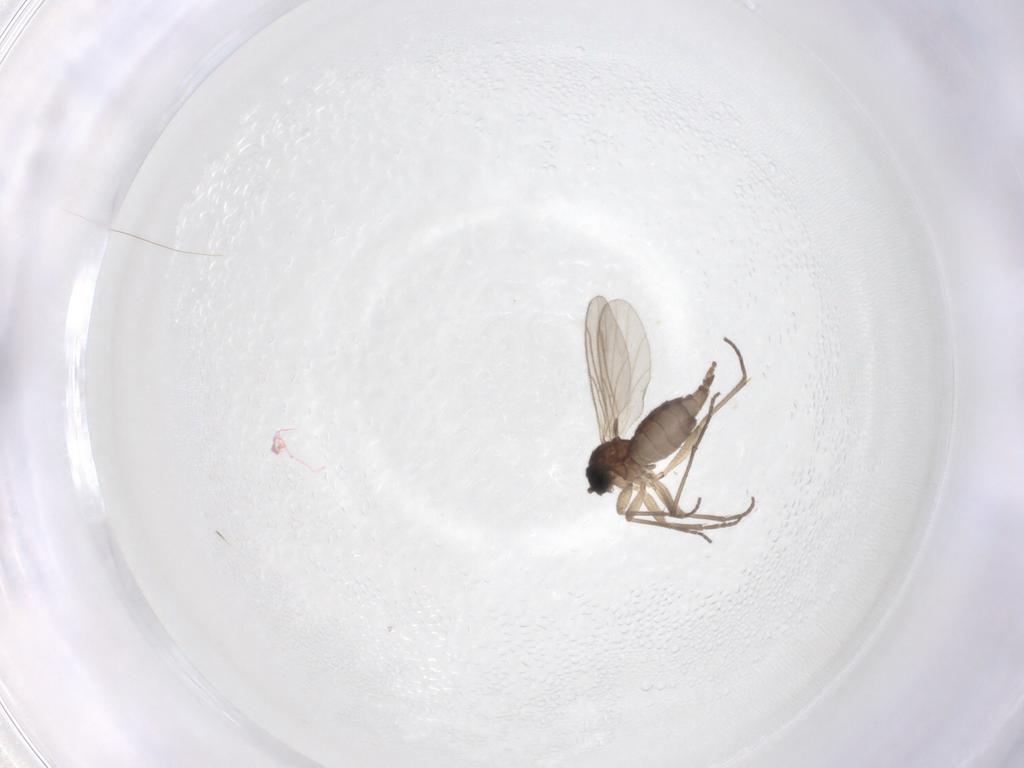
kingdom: Animalia
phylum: Arthropoda
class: Insecta
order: Diptera
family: Sciaridae
